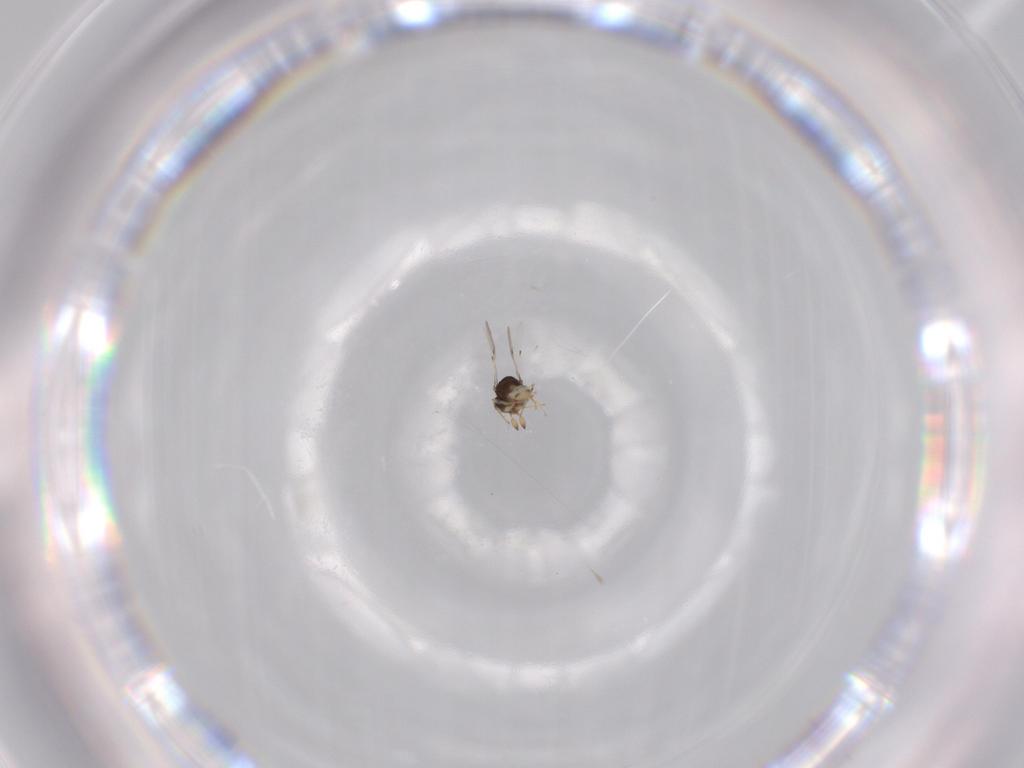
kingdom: Animalia
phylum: Arthropoda
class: Insecta
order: Hymenoptera
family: Scelionidae
